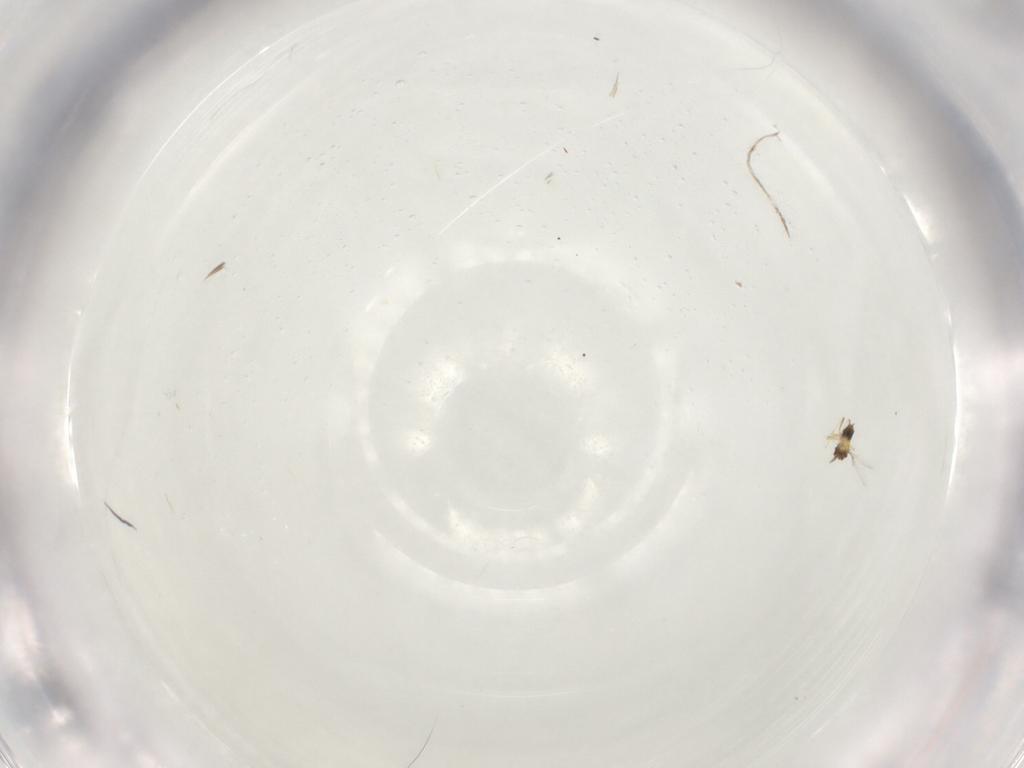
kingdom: Animalia
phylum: Arthropoda
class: Insecta
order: Hymenoptera
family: Trichogrammatidae
